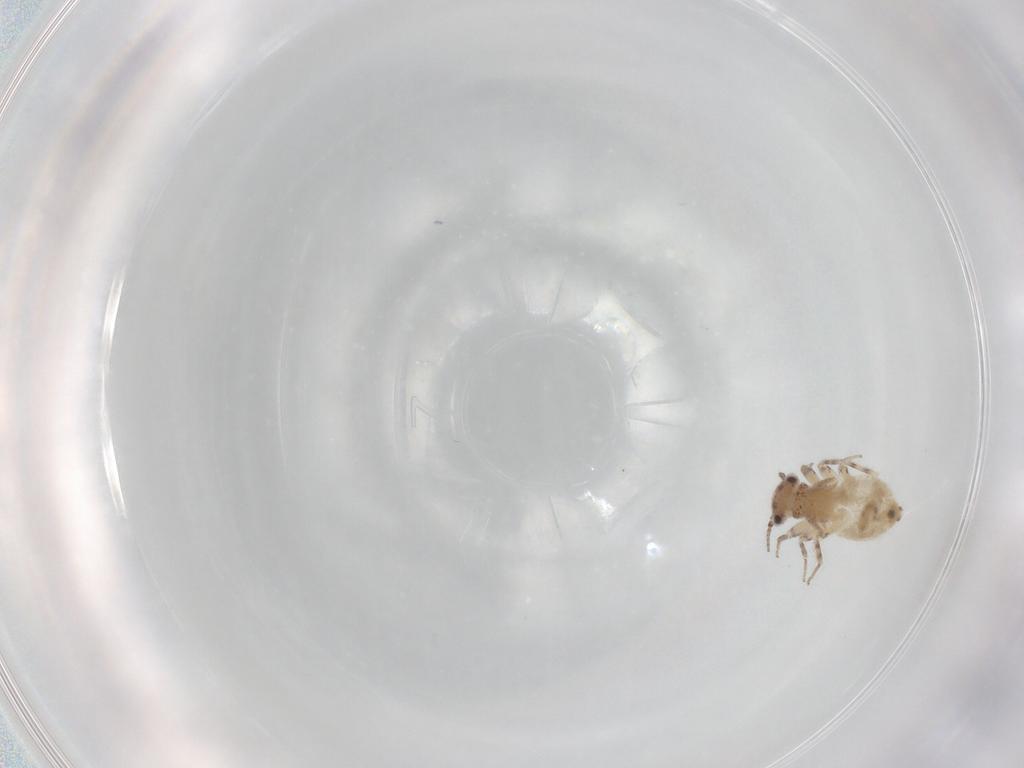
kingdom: Animalia
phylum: Arthropoda
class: Insecta
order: Psocodea
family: Lepidopsocidae
